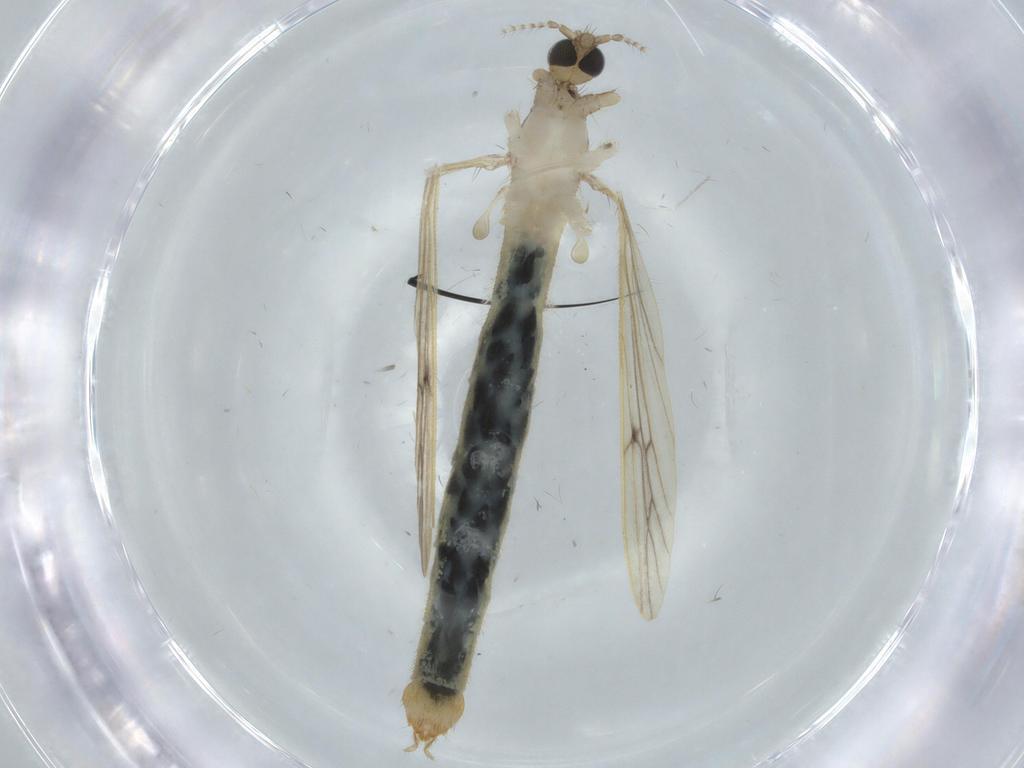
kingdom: Animalia
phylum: Arthropoda
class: Insecta
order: Diptera
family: Limoniidae
